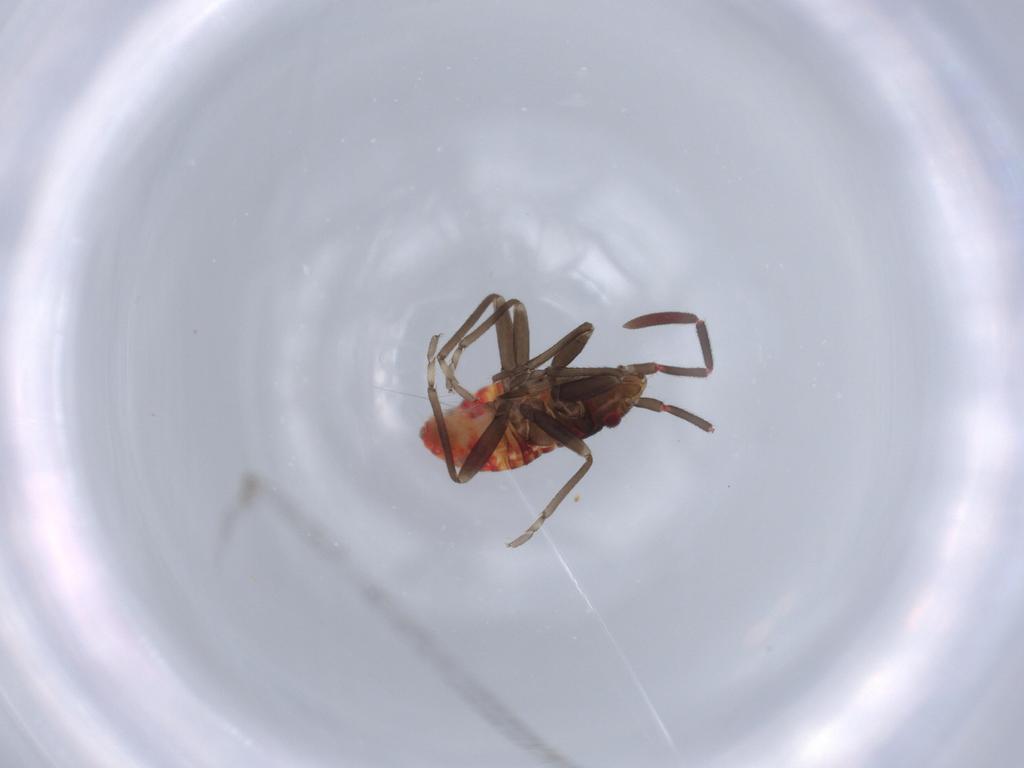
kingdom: Animalia
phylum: Arthropoda
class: Insecta
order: Hemiptera
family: Rhyparochromidae
